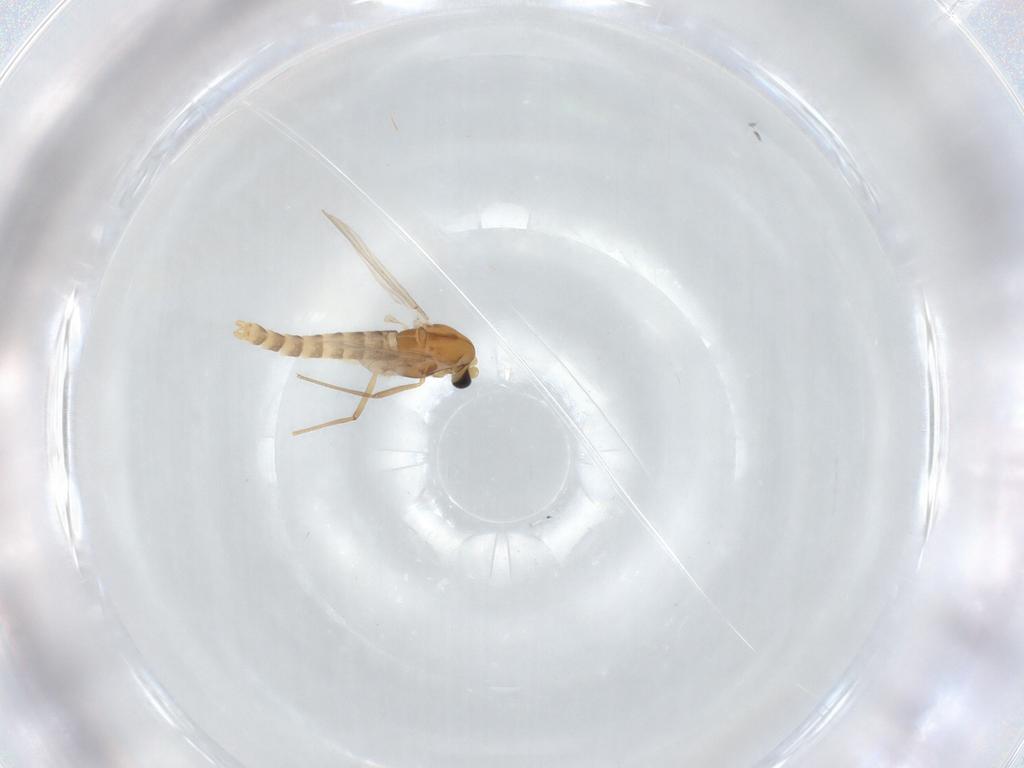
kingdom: Animalia
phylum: Arthropoda
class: Insecta
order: Diptera
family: Chironomidae
